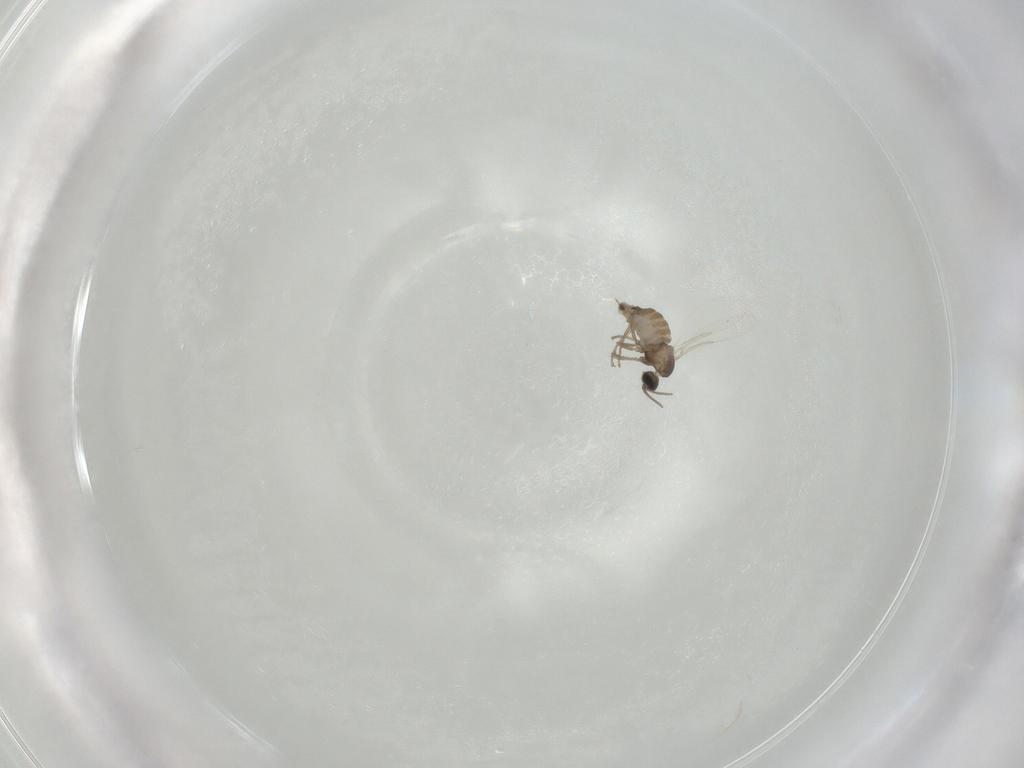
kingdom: Animalia
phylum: Arthropoda
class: Insecta
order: Diptera
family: Cecidomyiidae
